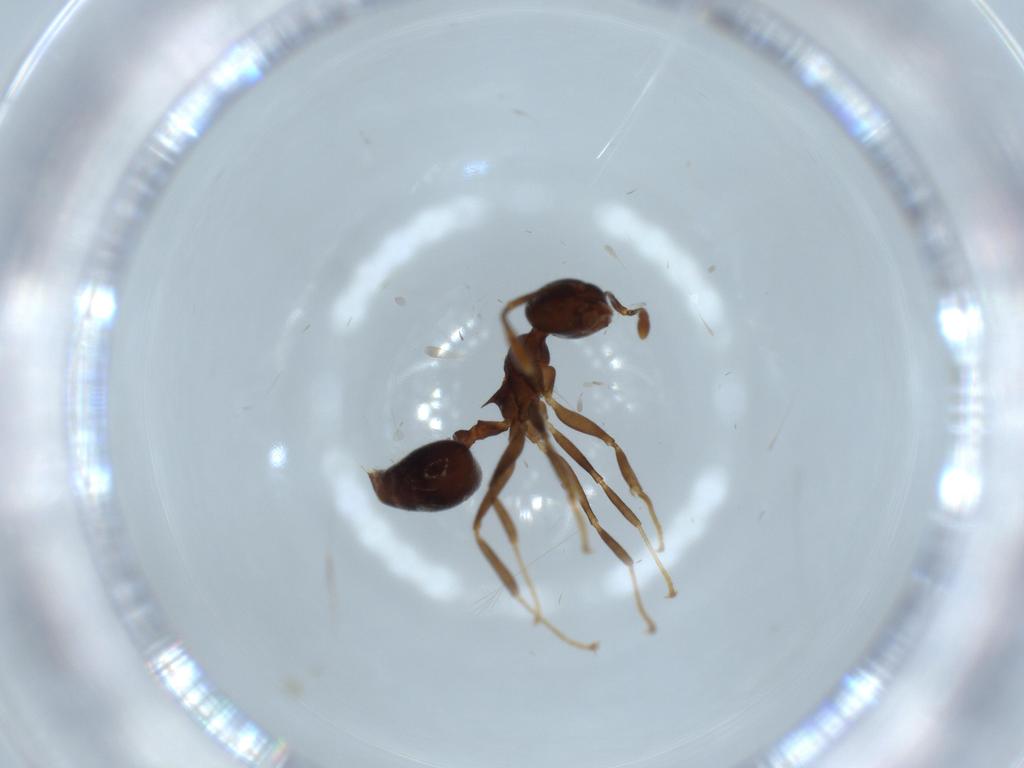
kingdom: Animalia
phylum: Arthropoda
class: Insecta
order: Hymenoptera
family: Formicidae
